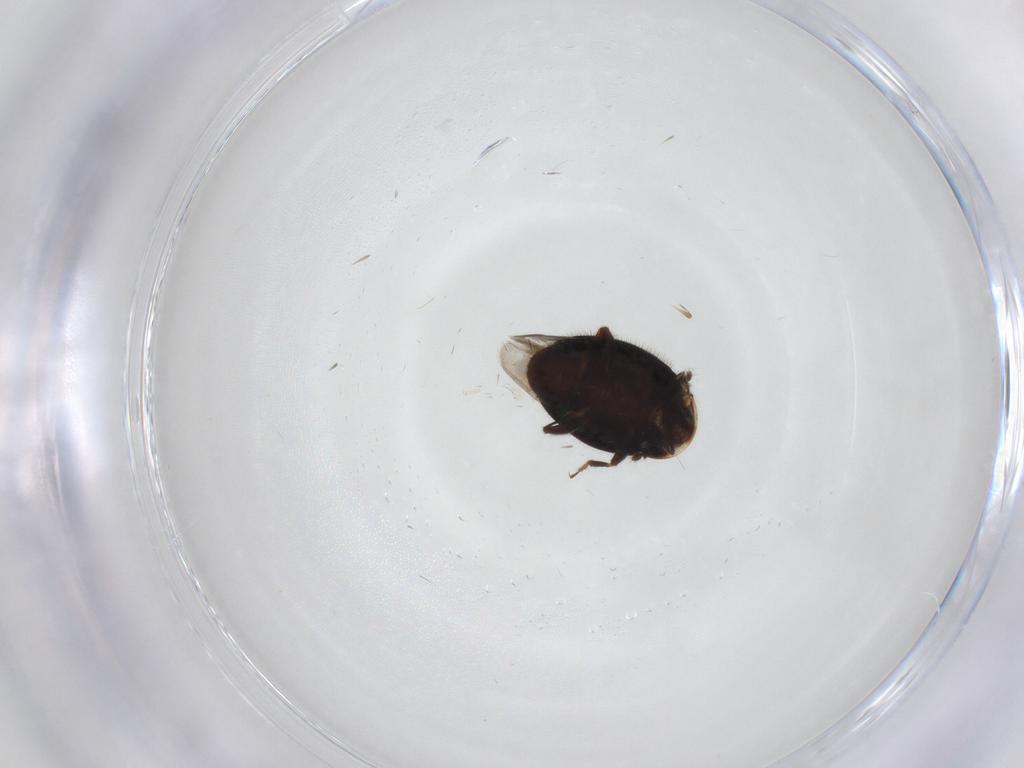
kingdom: Animalia
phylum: Arthropoda
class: Insecta
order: Coleoptera
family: Corylophidae
